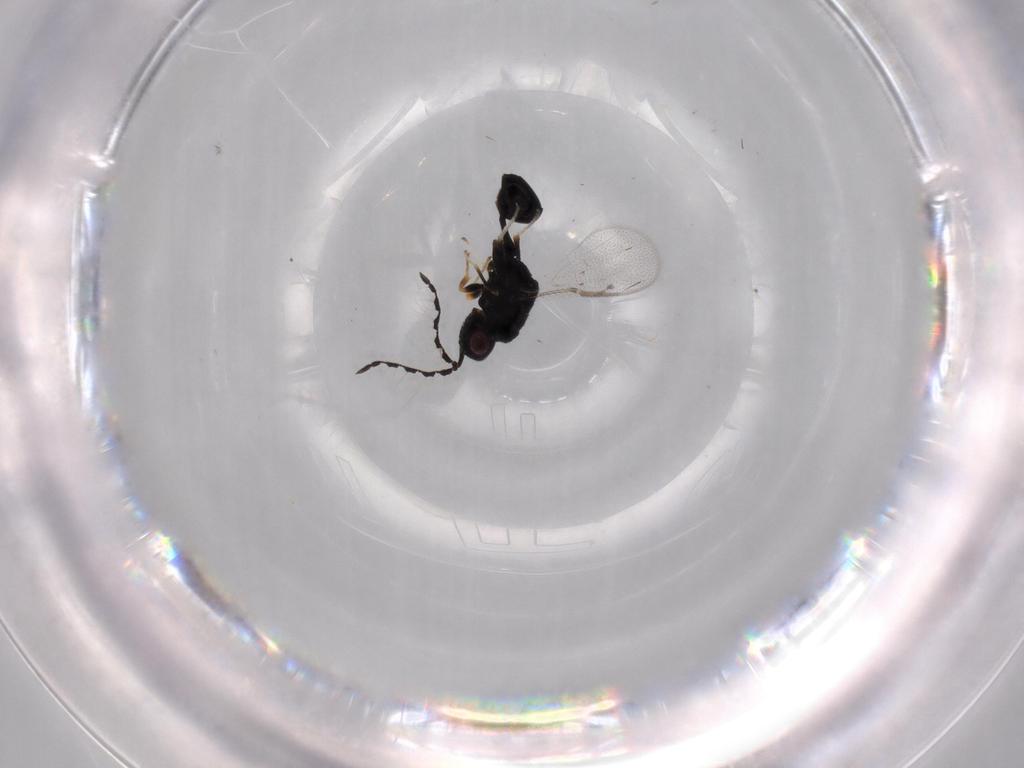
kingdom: Animalia
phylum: Arthropoda
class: Insecta
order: Hymenoptera
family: Eurytomidae
